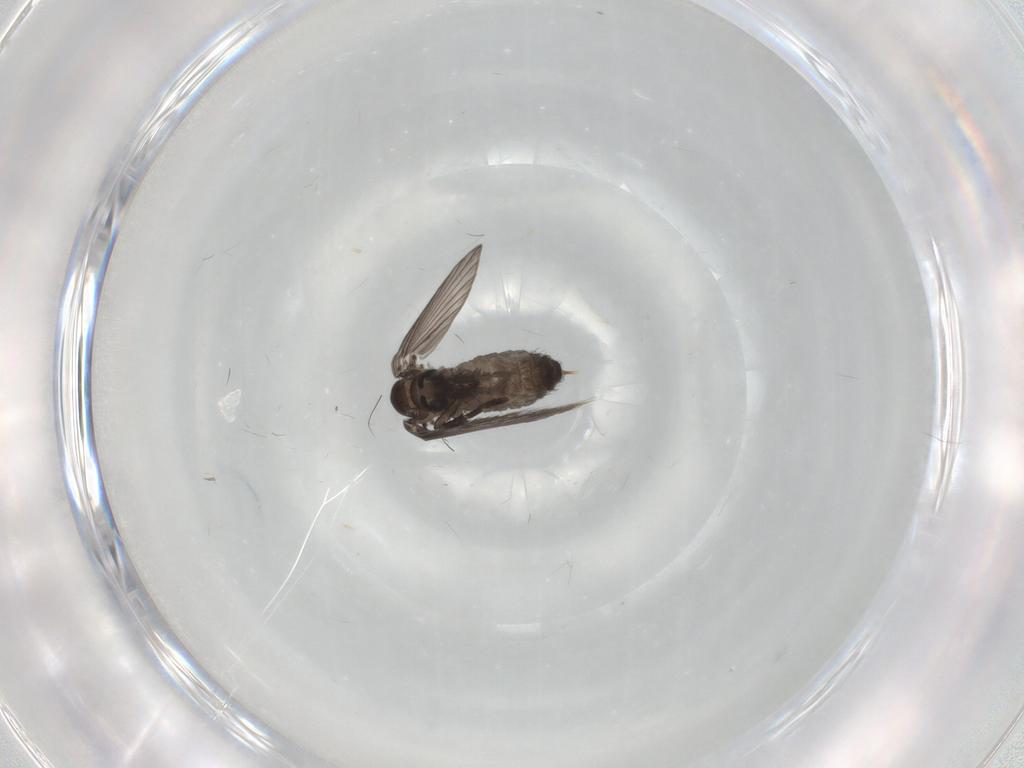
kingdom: Animalia
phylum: Arthropoda
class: Insecta
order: Diptera
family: Psychodidae
